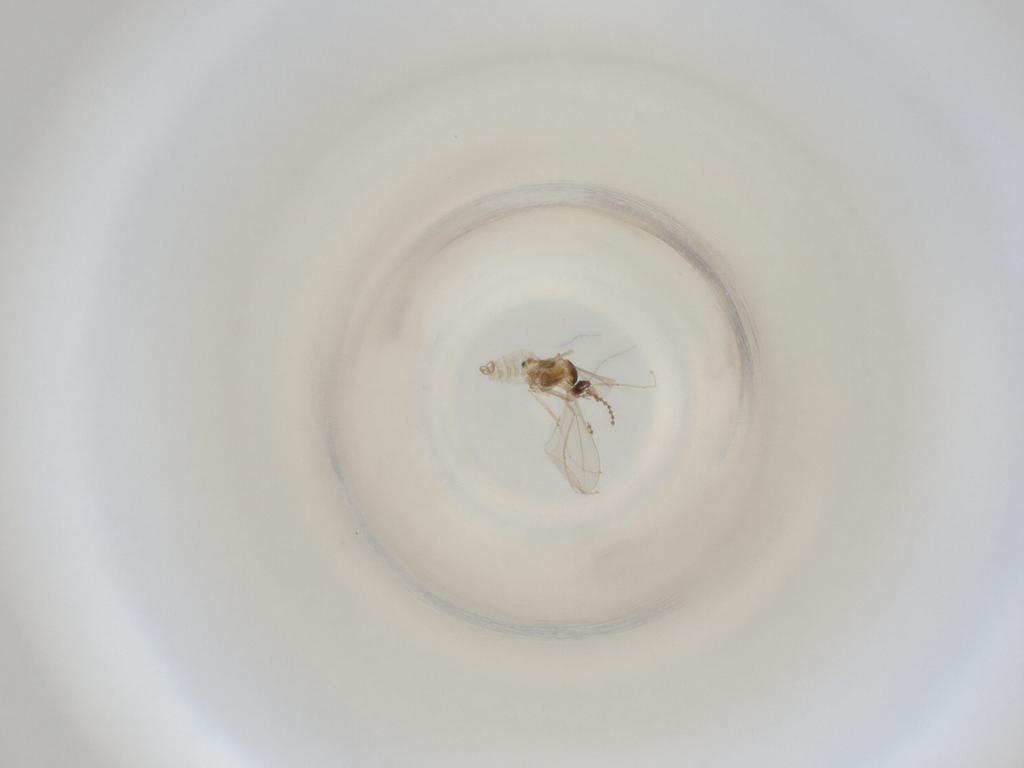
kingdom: Animalia
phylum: Arthropoda
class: Insecta
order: Diptera
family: Cecidomyiidae
